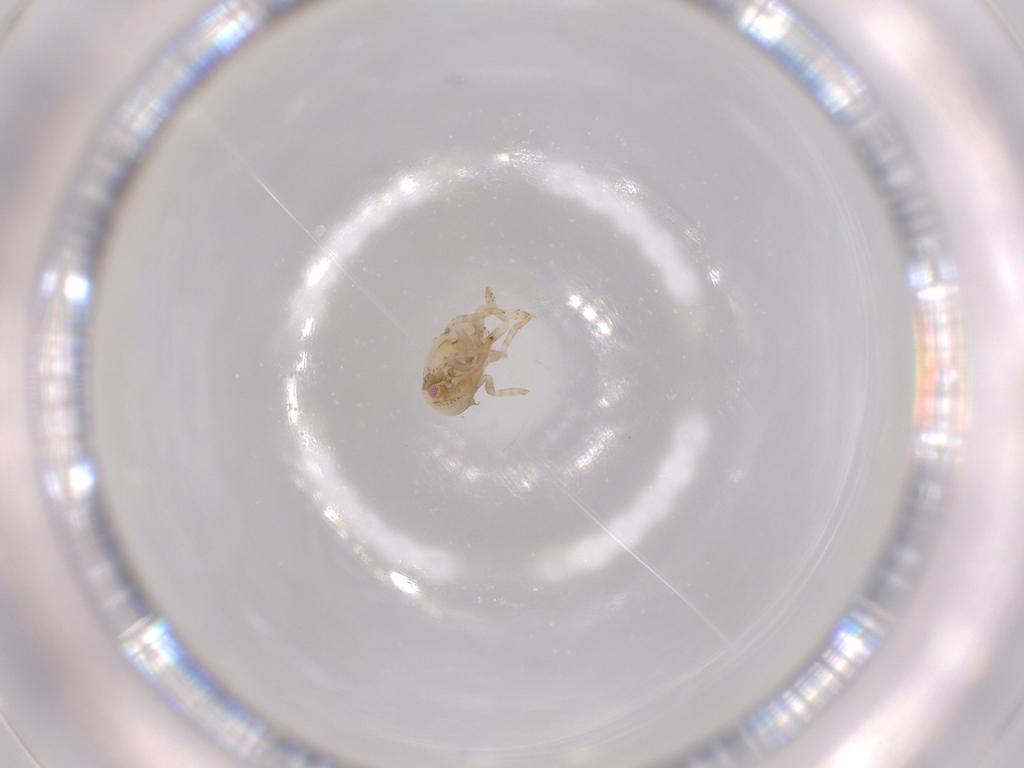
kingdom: Animalia
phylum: Arthropoda
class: Insecta
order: Hemiptera
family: Acanaloniidae
